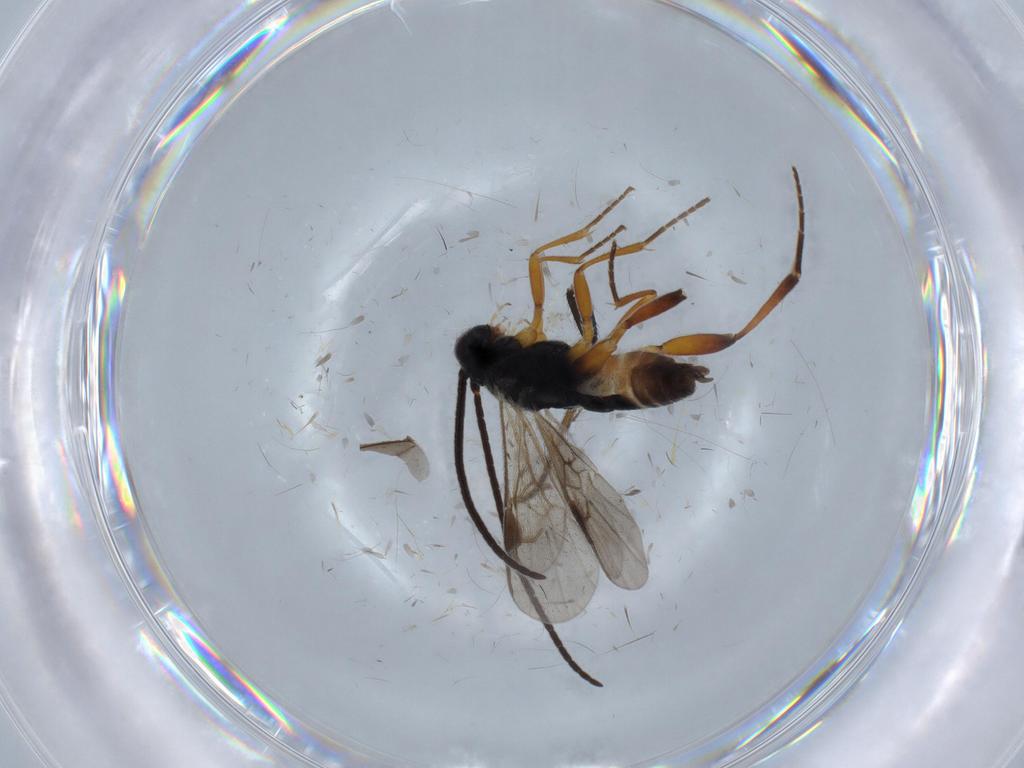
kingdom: Animalia
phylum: Arthropoda
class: Insecta
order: Hymenoptera
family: Braconidae
